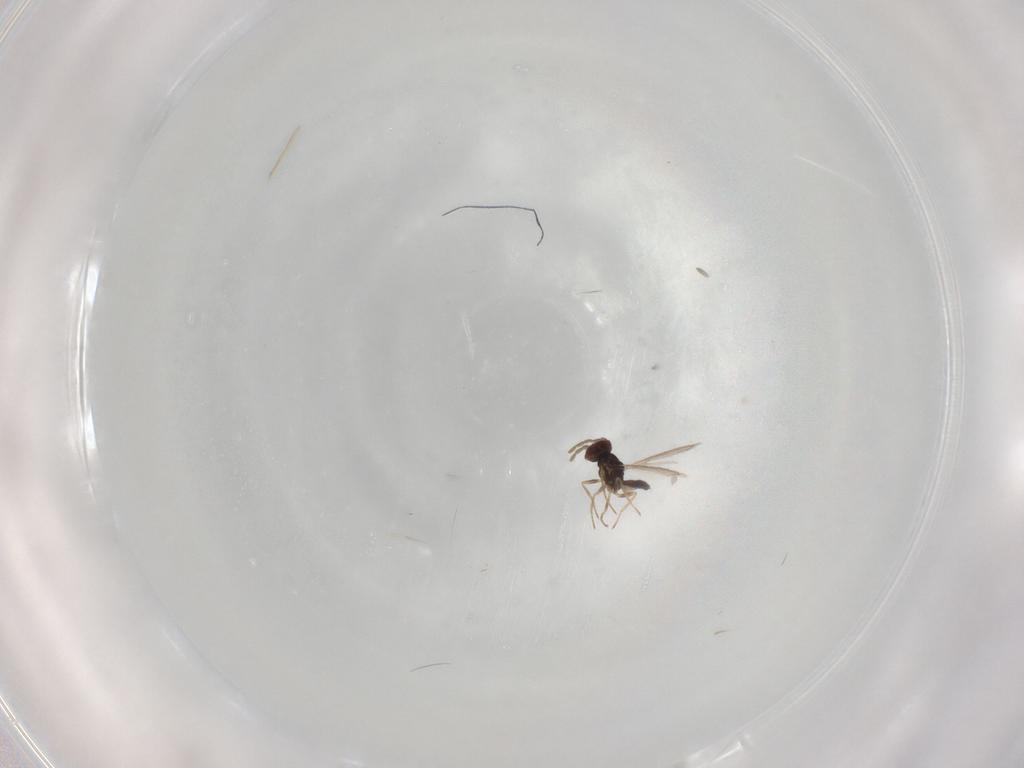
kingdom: Animalia
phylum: Arthropoda
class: Insecta
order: Hymenoptera
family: Eulophidae
